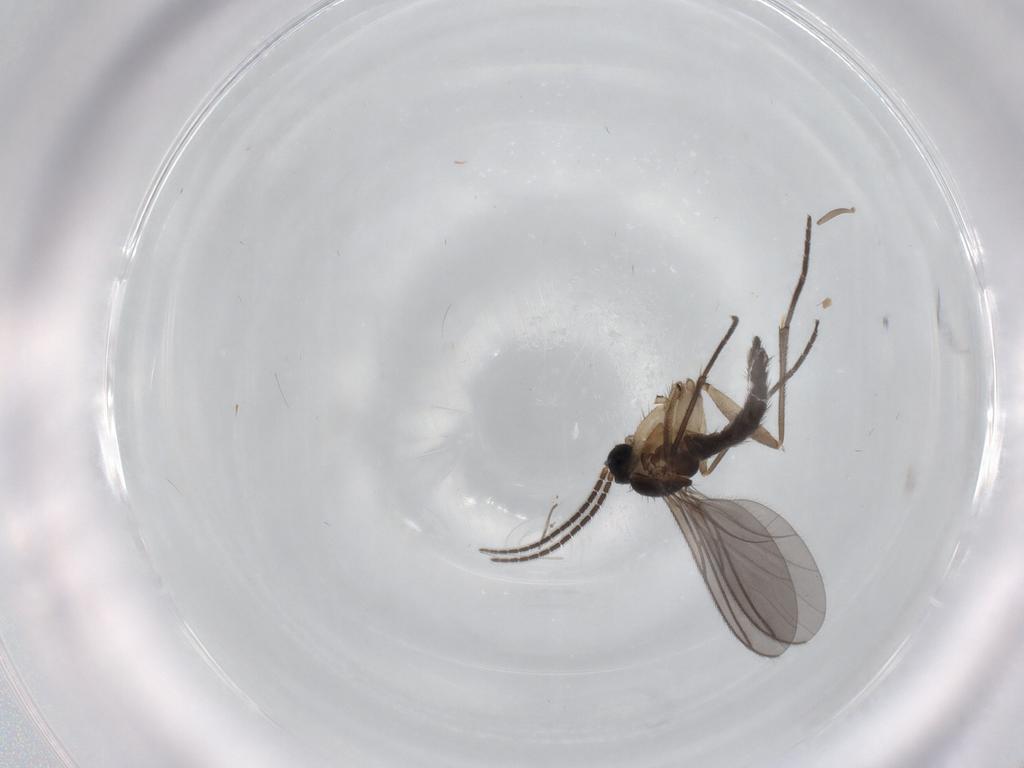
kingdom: Animalia
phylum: Arthropoda
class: Insecta
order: Diptera
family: Sciaridae
